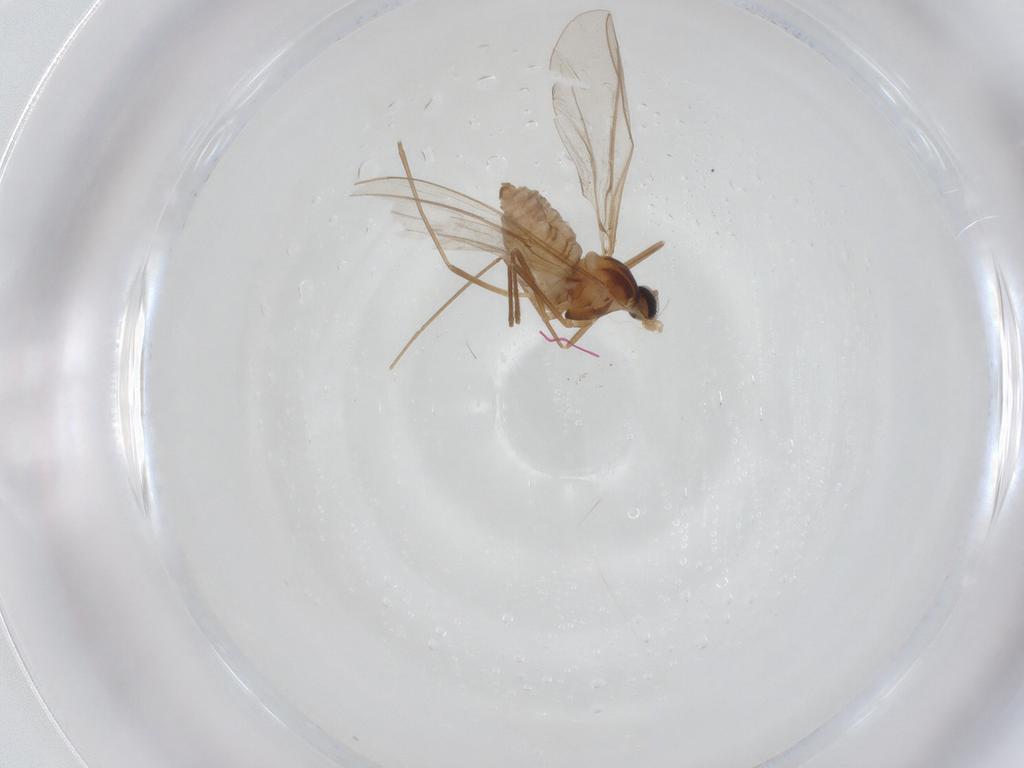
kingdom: Animalia
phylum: Arthropoda
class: Insecta
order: Diptera
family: Cecidomyiidae
